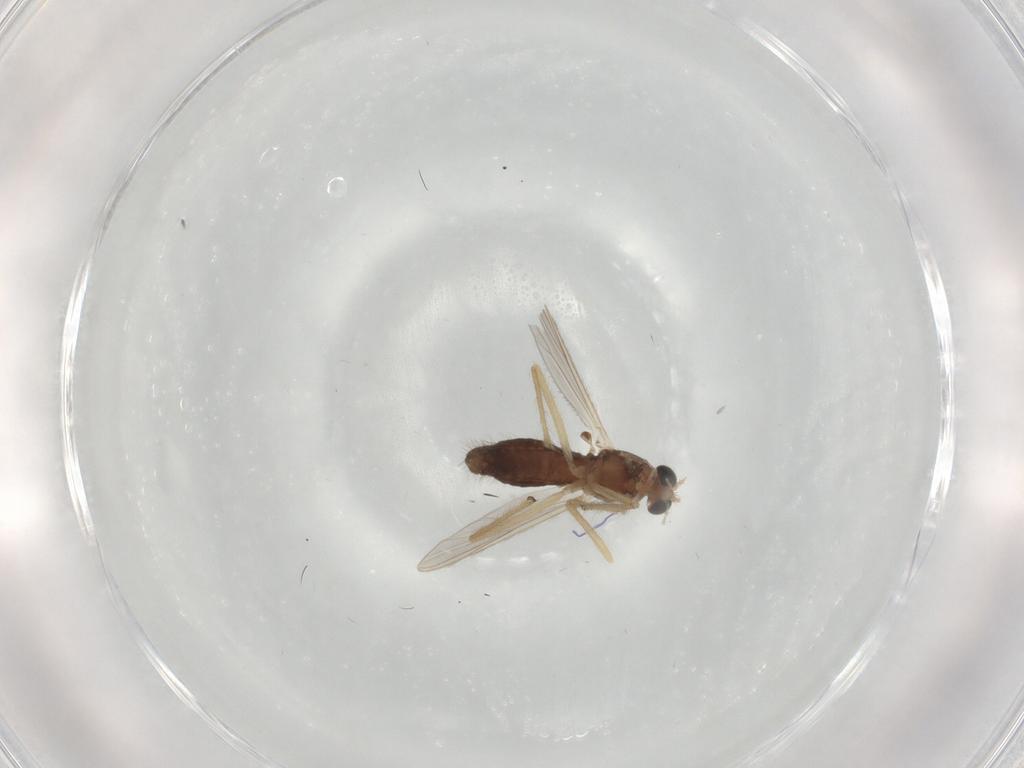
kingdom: Animalia
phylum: Arthropoda
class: Insecta
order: Diptera
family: Chironomidae
